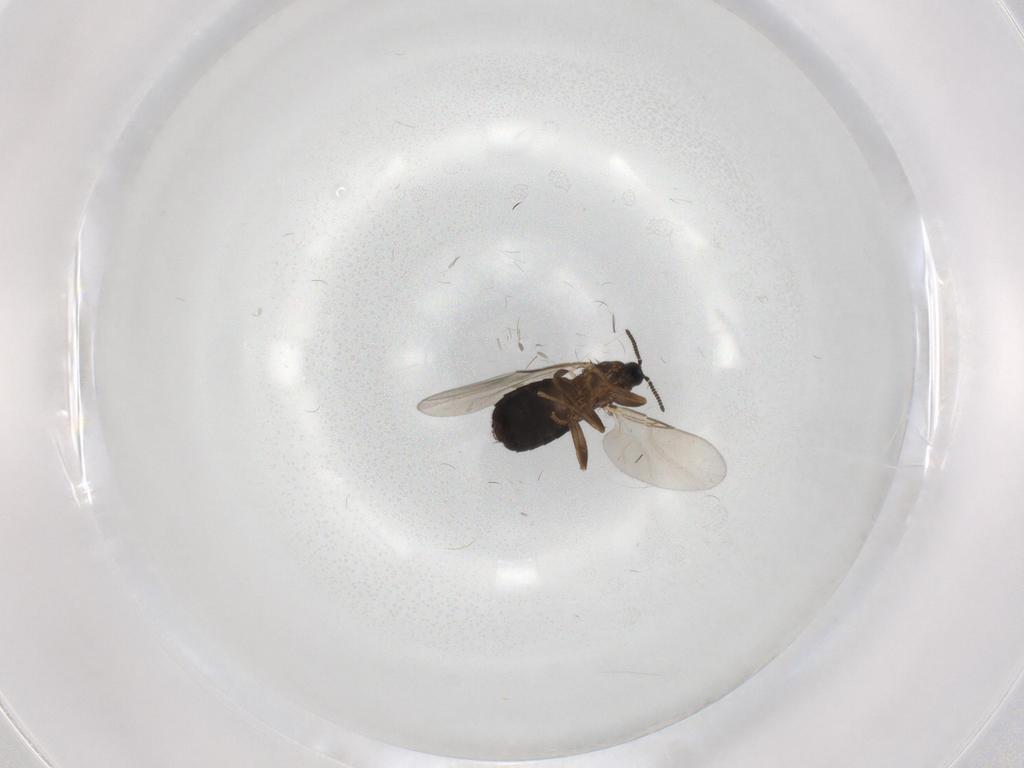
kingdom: Animalia
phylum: Arthropoda
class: Insecta
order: Diptera
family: Scatopsidae
